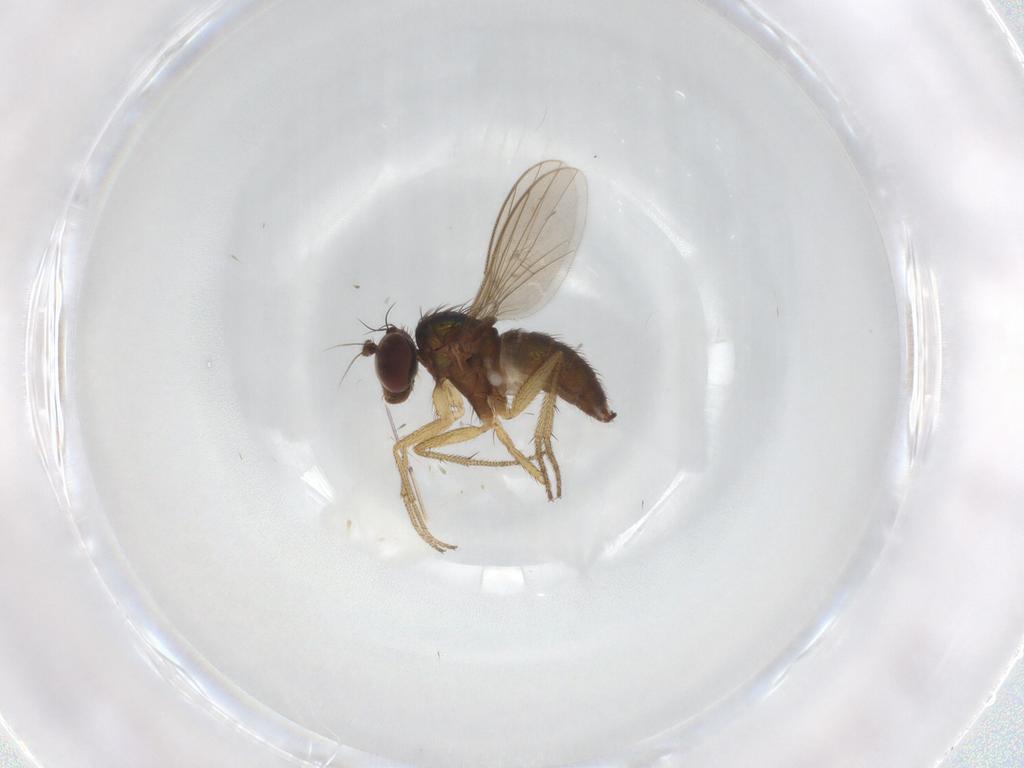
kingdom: Animalia
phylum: Arthropoda
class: Insecta
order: Diptera
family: Dolichopodidae
